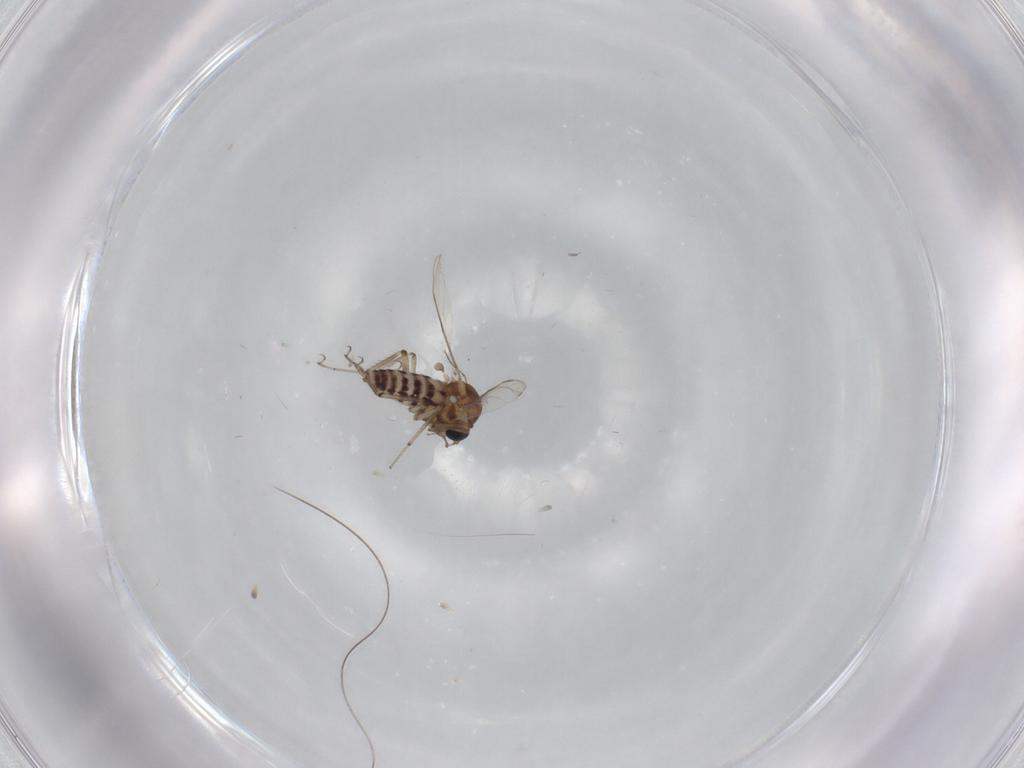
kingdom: Animalia
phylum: Arthropoda
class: Insecta
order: Diptera
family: Ceratopogonidae
